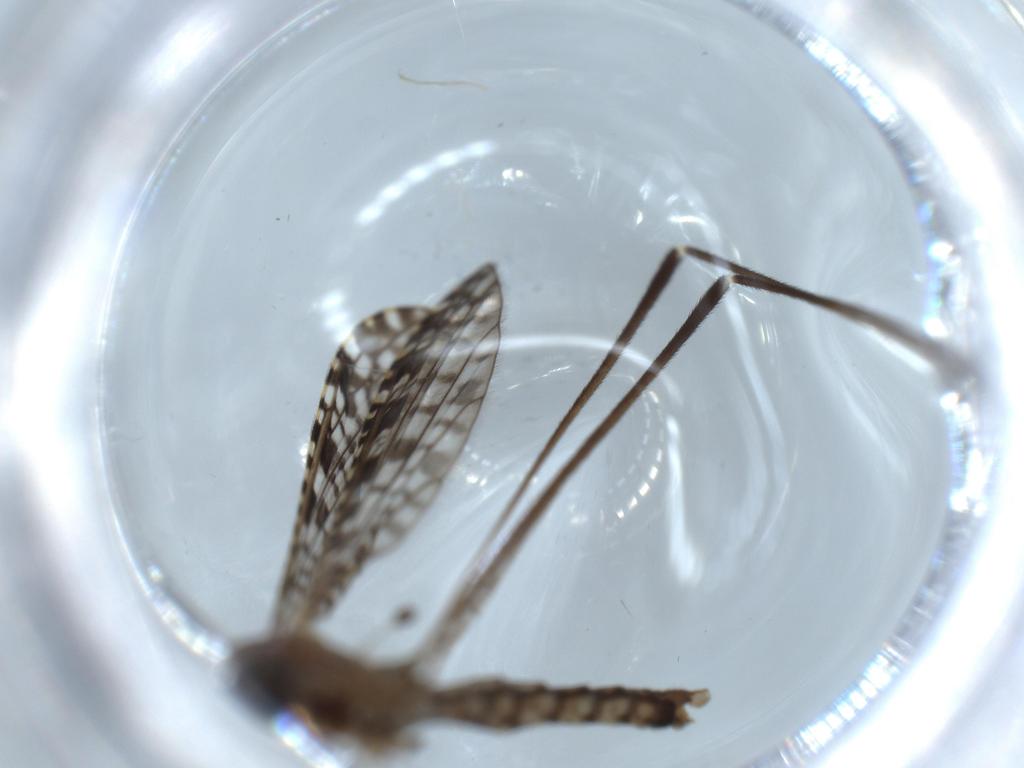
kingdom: Animalia
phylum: Arthropoda
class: Insecta
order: Diptera
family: Limoniidae
